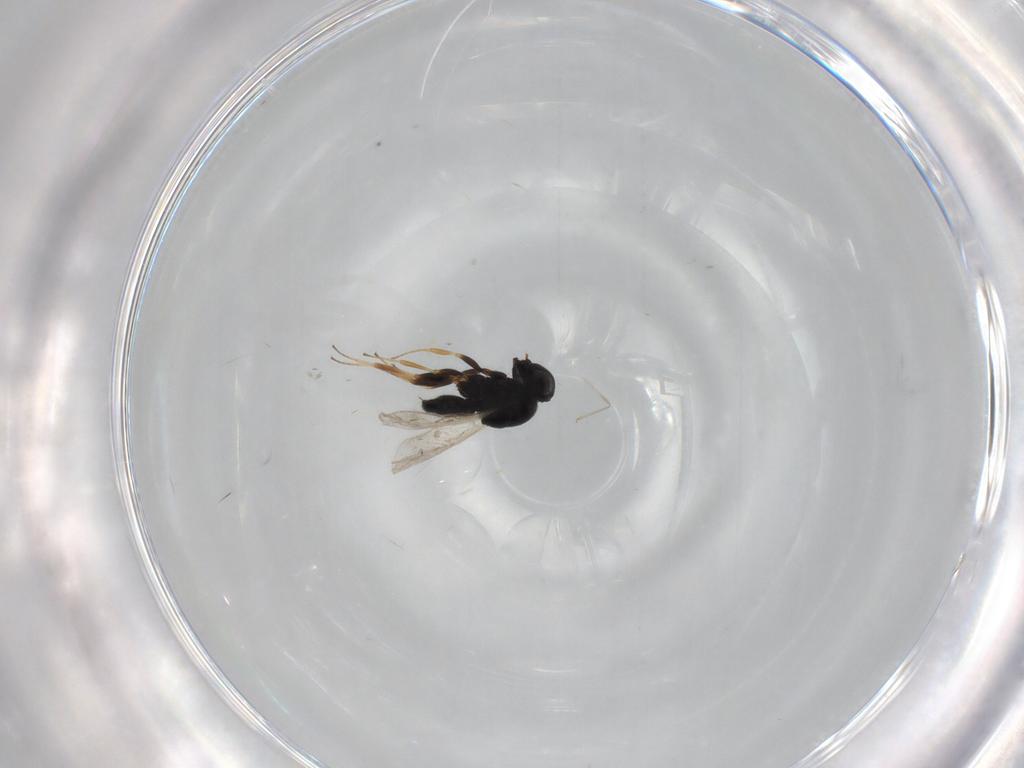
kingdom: Animalia
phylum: Arthropoda
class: Insecta
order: Coleoptera
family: Curculionidae
